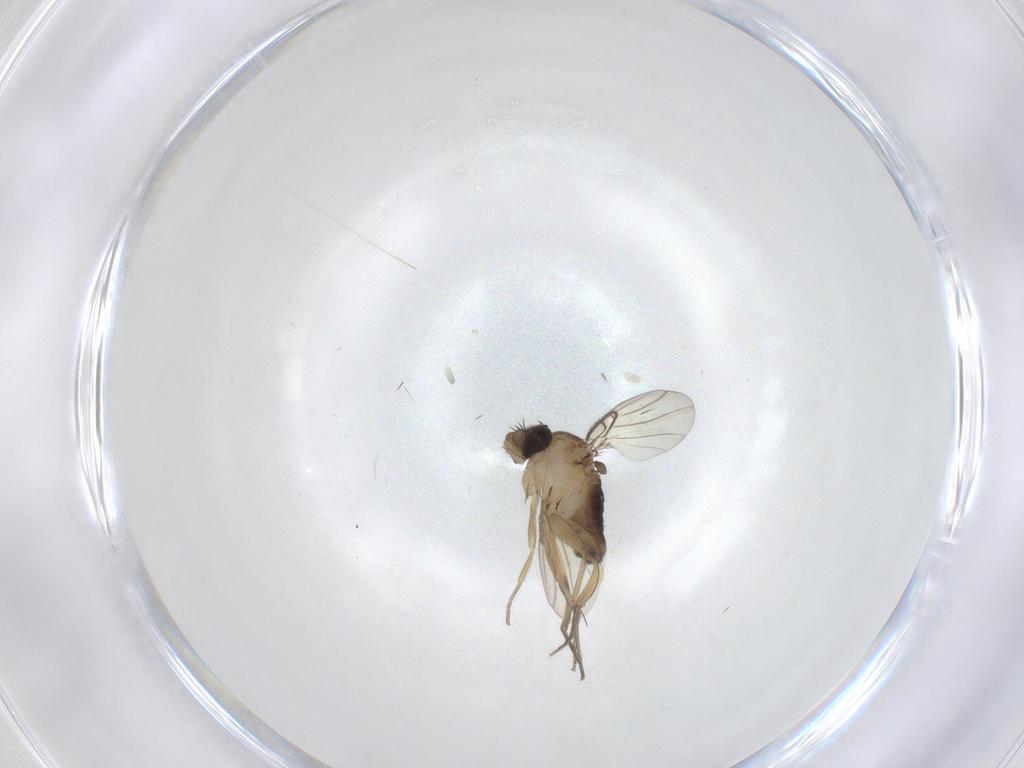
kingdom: Animalia
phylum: Arthropoda
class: Insecta
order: Diptera
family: Phoridae
